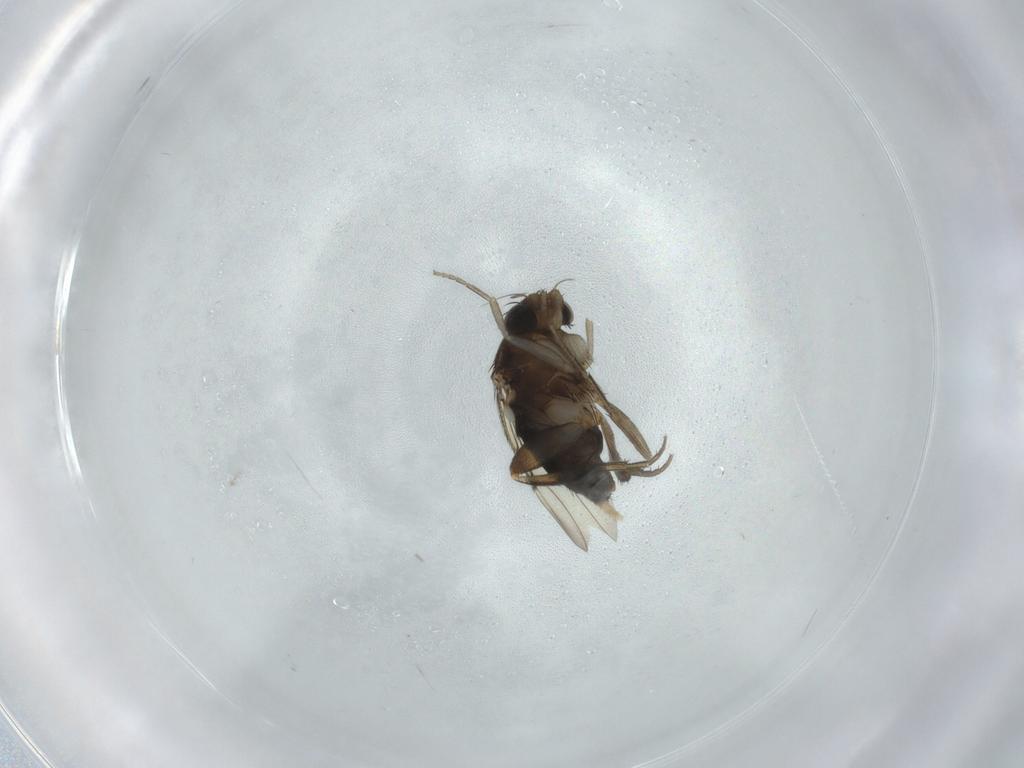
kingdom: Animalia
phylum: Arthropoda
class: Insecta
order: Diptera
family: Phoridae
